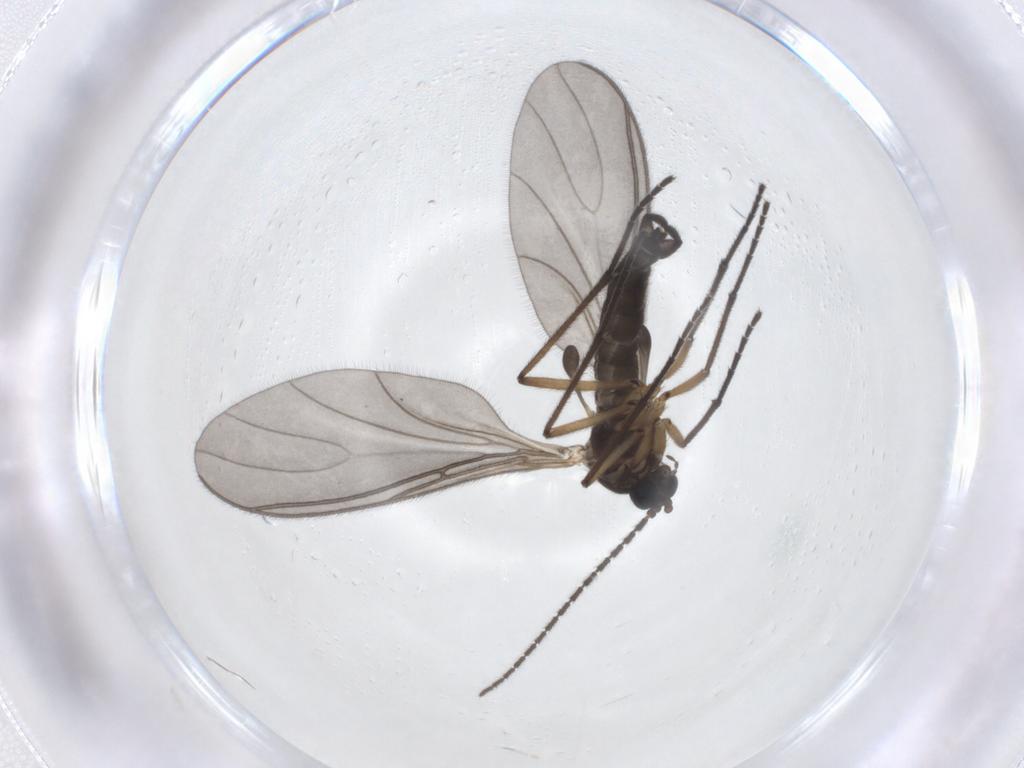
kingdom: Animalia
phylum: Arthropoda
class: Insecta
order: Diptera
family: Sciaridae
